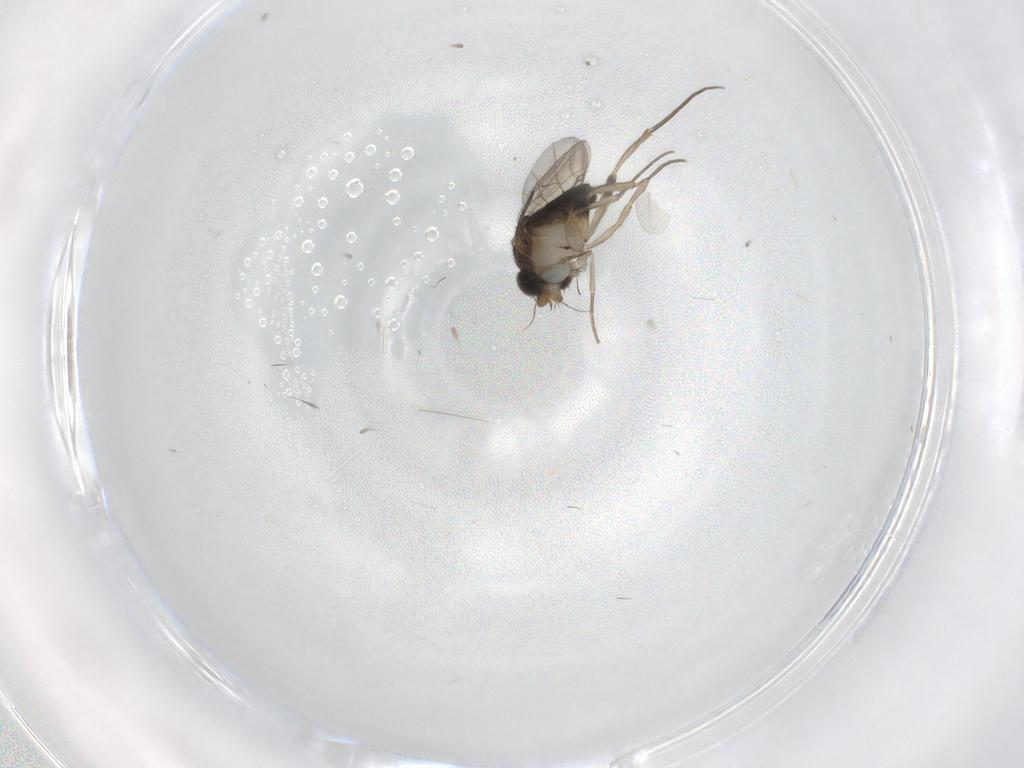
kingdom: Animalia
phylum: Arthropoda
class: Insecta
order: Diptera
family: Phoridae
